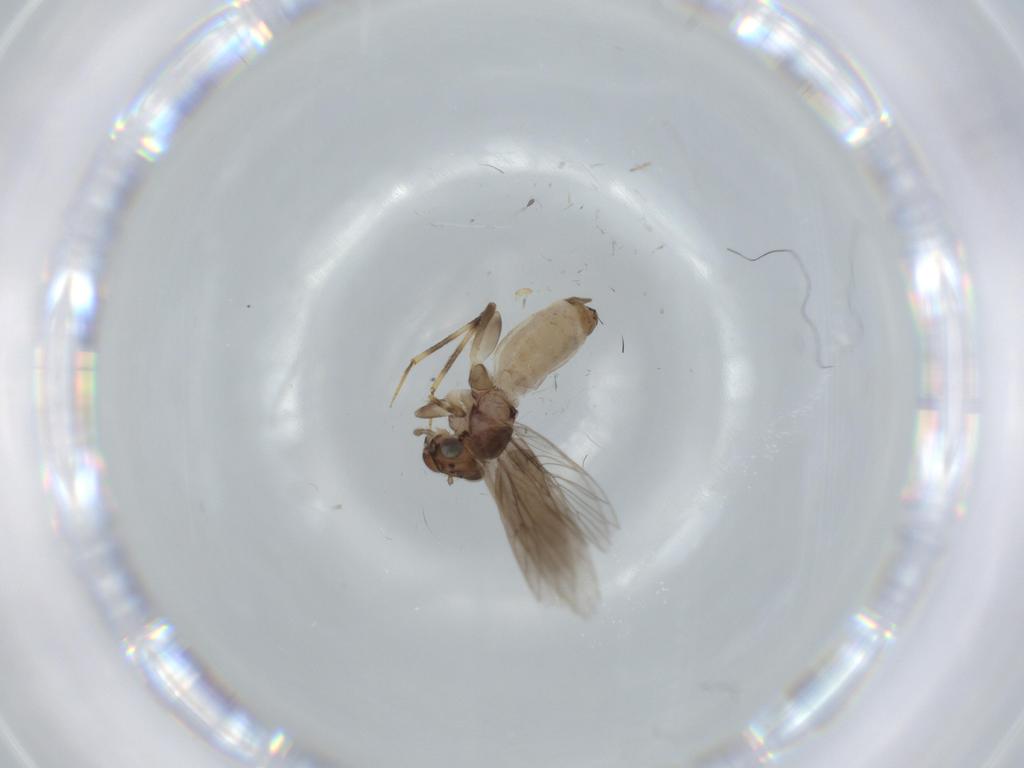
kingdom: Animalia
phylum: Arthropoda
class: Insecta
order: Psocodea
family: Lepidopsocidae
